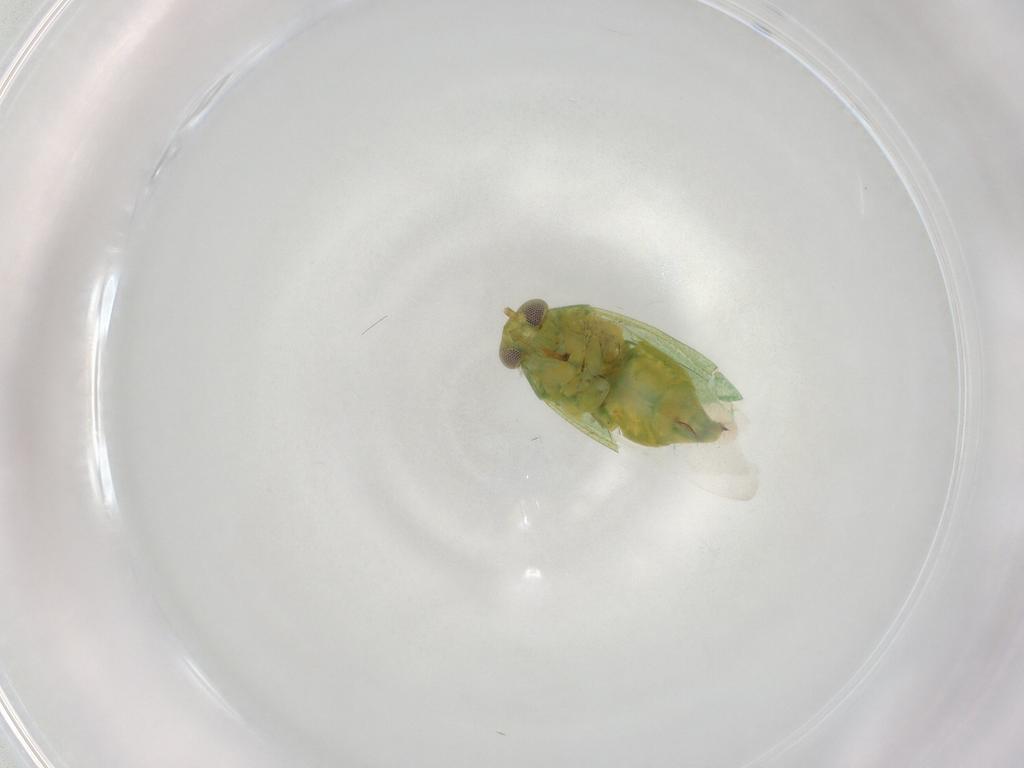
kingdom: Animalia
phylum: Arthropoda
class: Insecta
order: Hemiptera
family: Miridae
